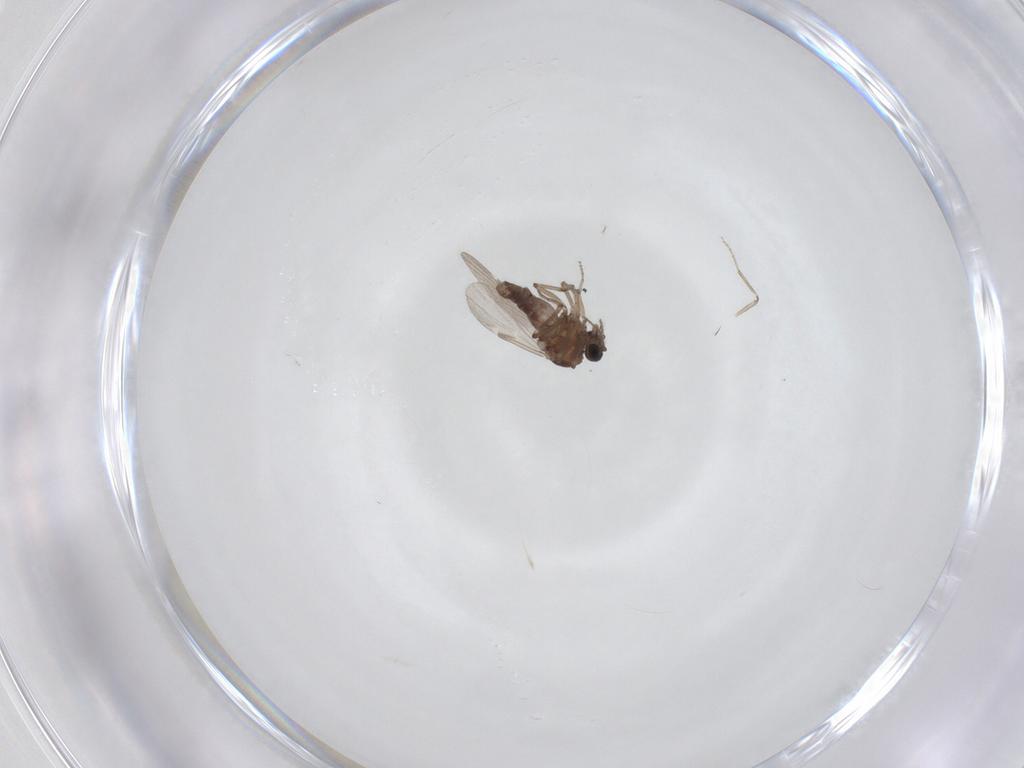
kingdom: Animalia
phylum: Arthropoda
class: Insecta
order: Diptera
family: Ceratopogonidae
